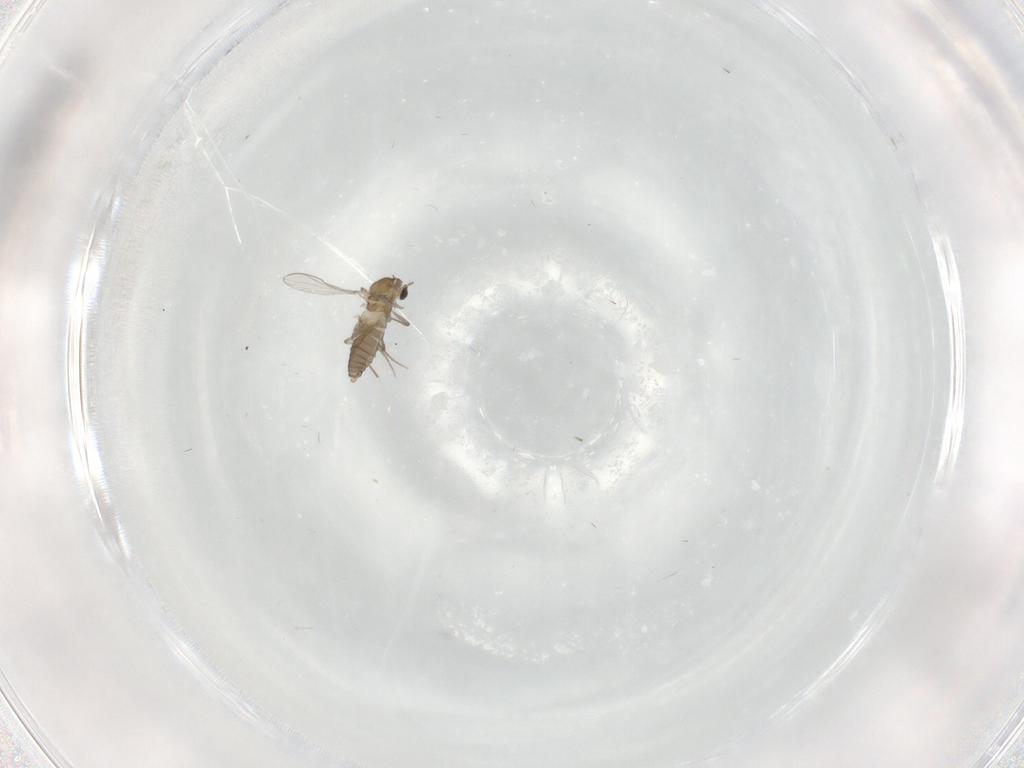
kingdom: Animalia
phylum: Arthropoda
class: Insecta
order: Diptera
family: Chironomidae
